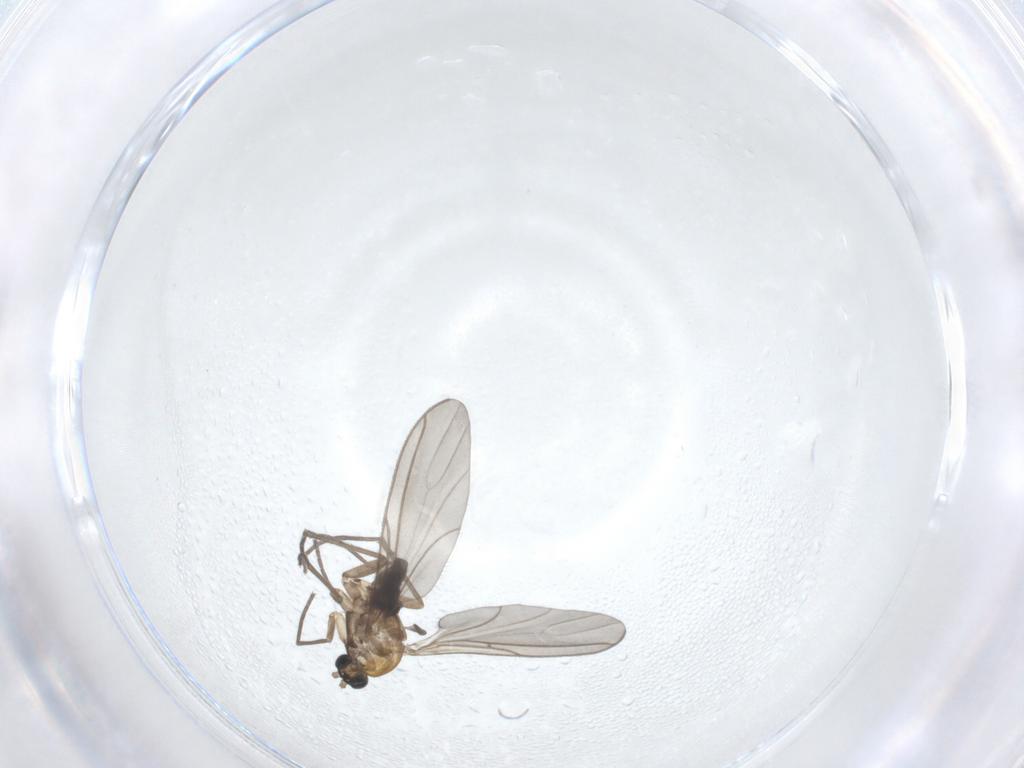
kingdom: Animalia
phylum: Arthropoda
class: Insecta
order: Diptera
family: Sciaridae
